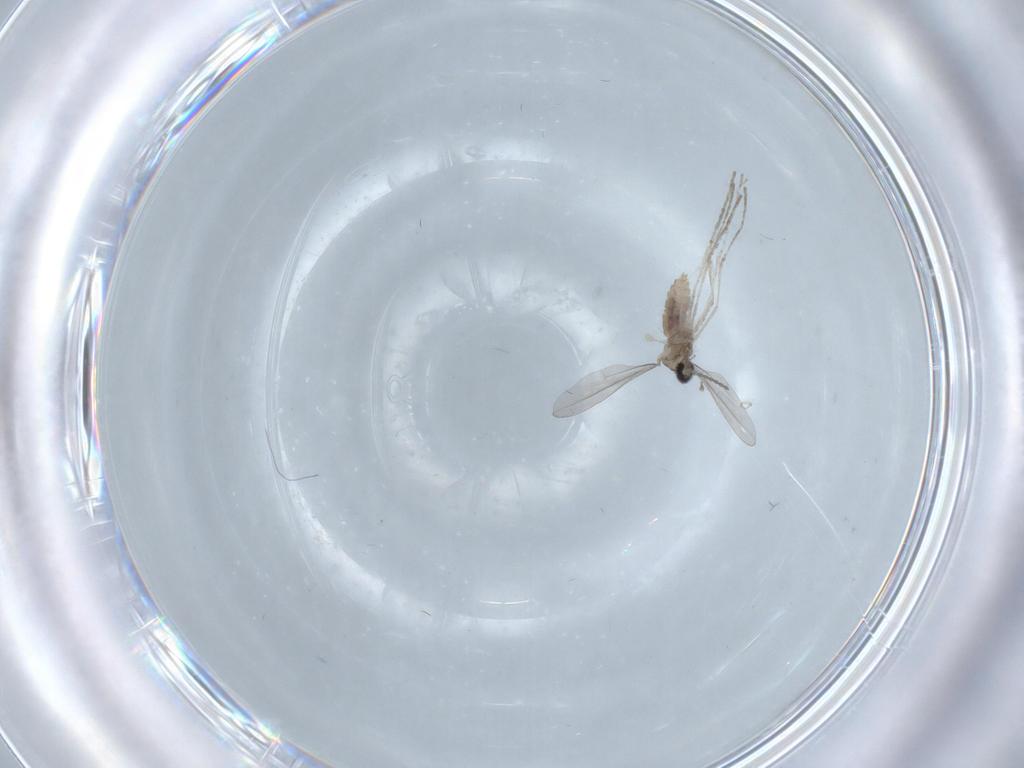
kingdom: Animalia
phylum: Arthropoda
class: Insecta
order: Diptera
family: Cecidomyiidae
